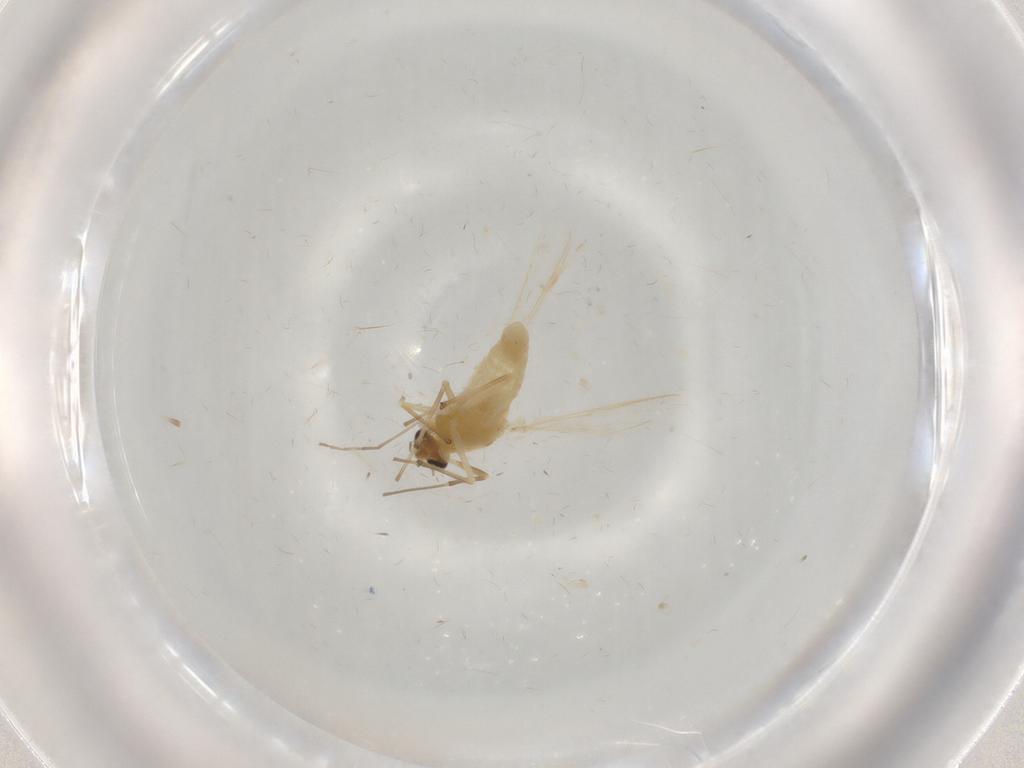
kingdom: Animalia
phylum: Arthropoda
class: Insecta
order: Diptera
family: Chironomidae
